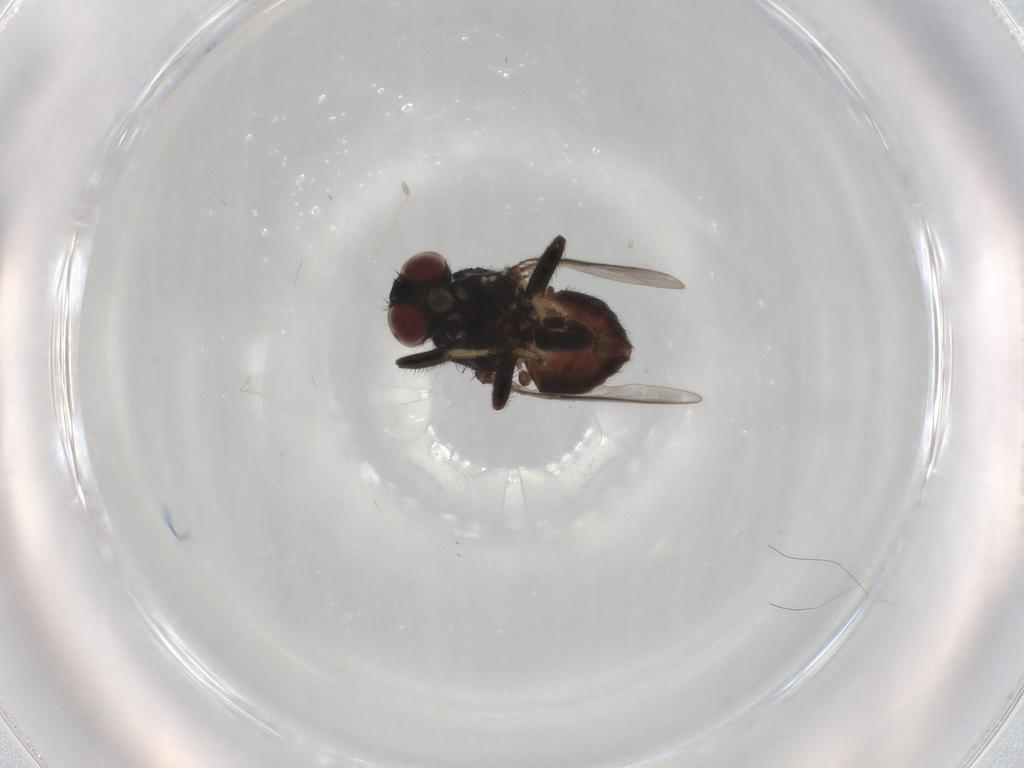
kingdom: Animalia
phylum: Arthropoda
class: Insecta
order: Diptera
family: Chloropidae
